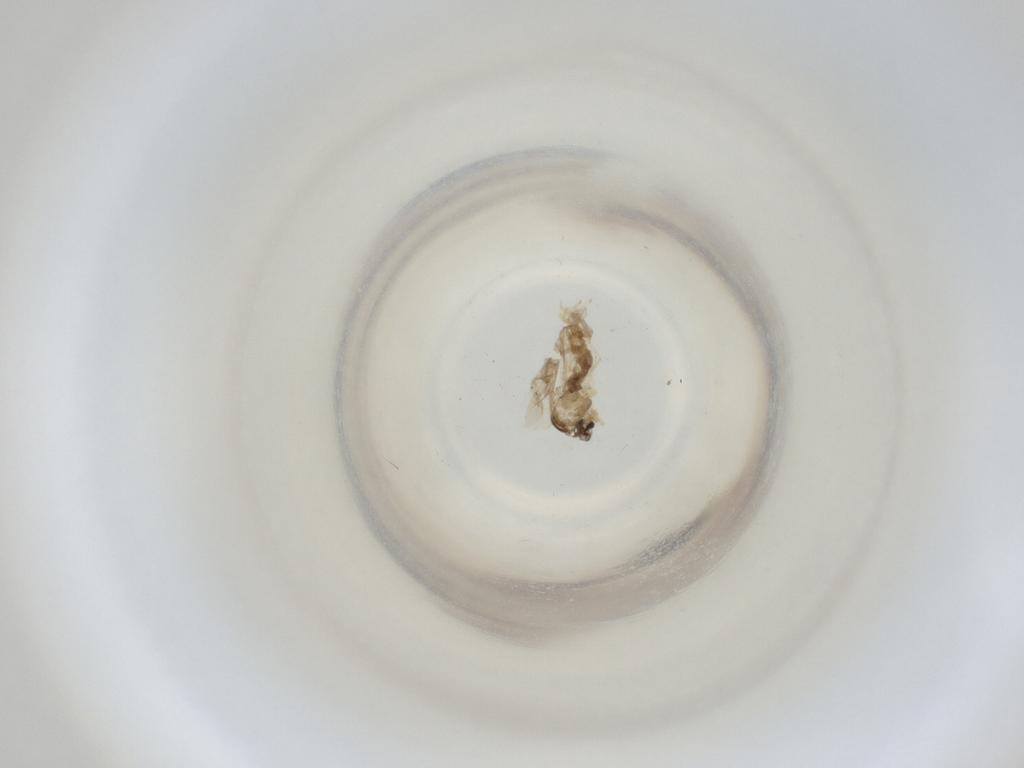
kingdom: Animalia
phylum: Arthropoda
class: Insecta
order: Diptera
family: Cecidomyiidae
